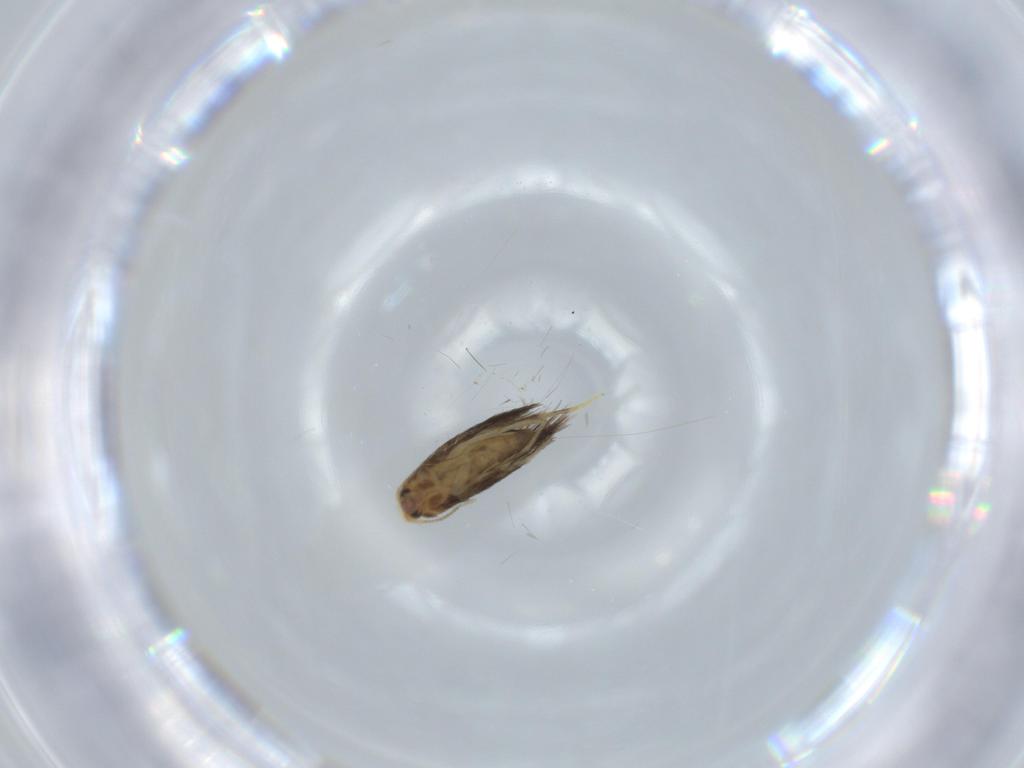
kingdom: Animalia
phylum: Arthropoda
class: Insecta
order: Lepidoptera
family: Nepticulidae
